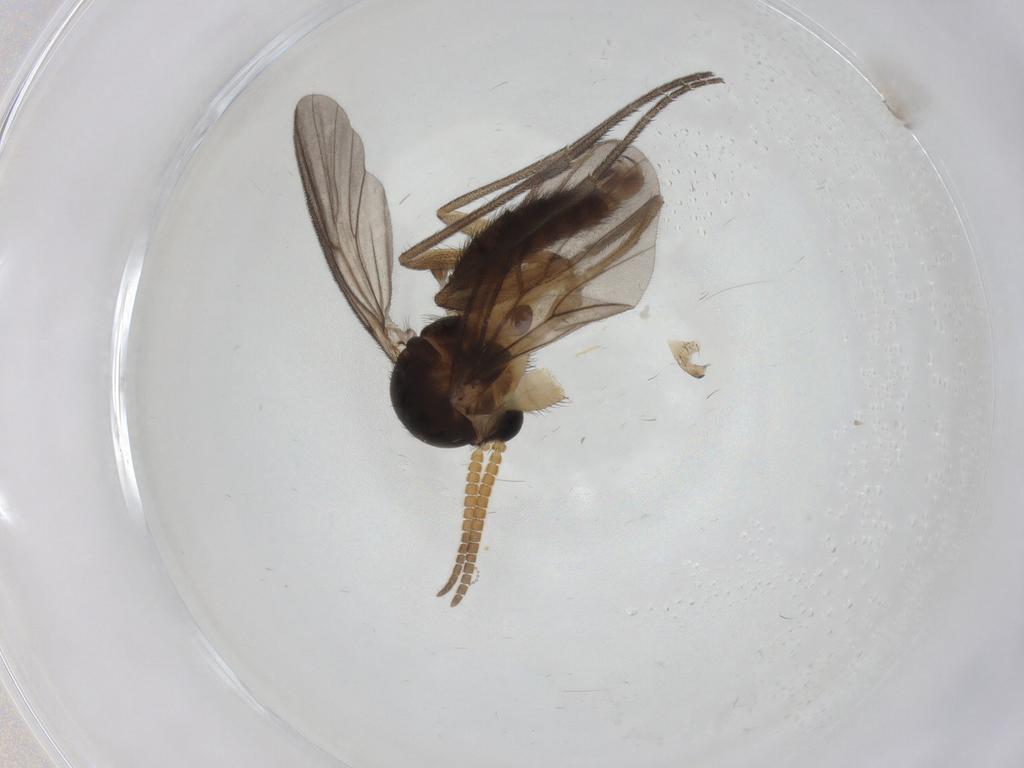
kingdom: Animalia
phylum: Arthropoda
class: Insecta
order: Diptera
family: Mycetophilidae
